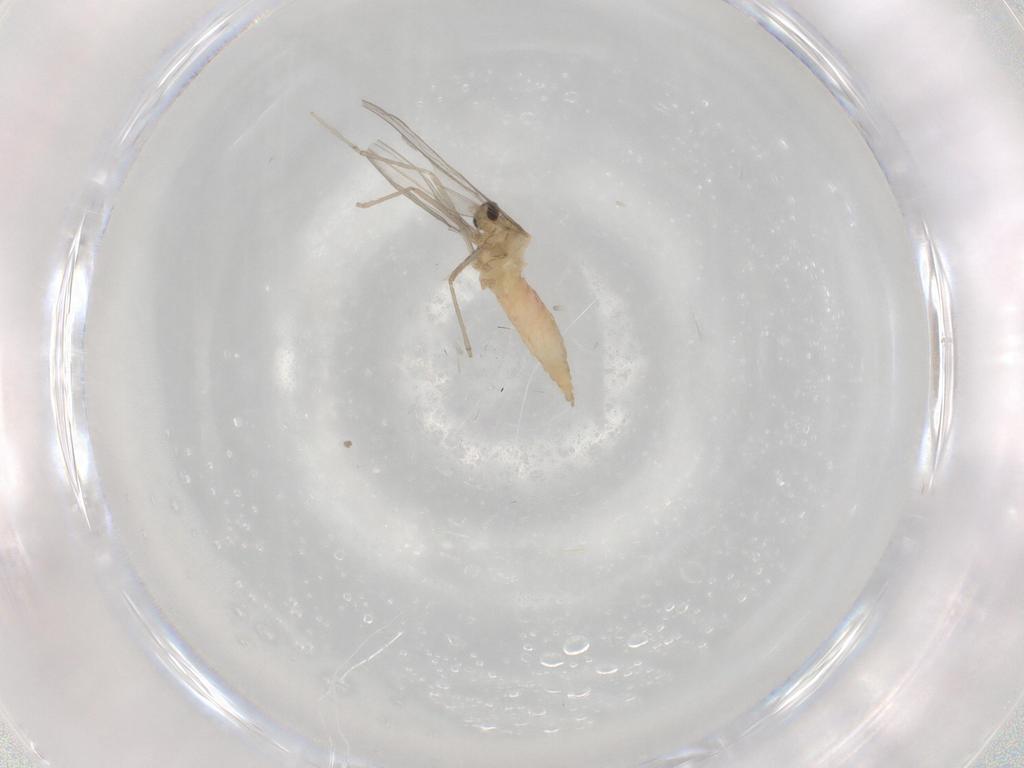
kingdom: Animalia
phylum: Arthropoda
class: Insecta
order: Diptera
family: Cecidomyiidae
